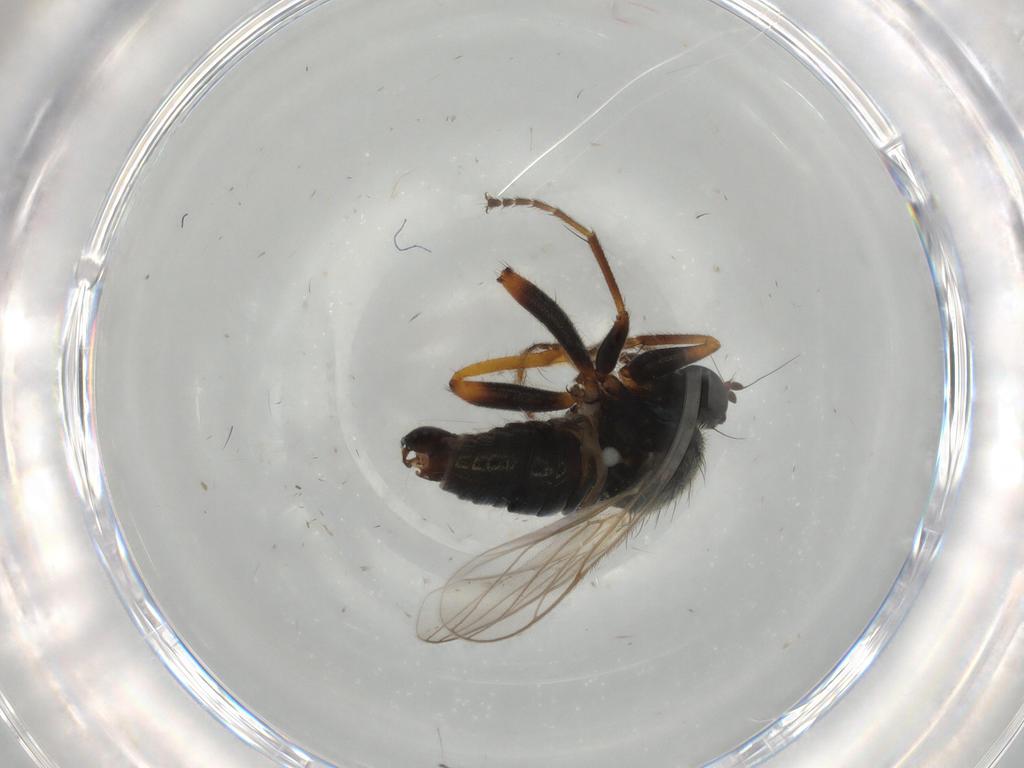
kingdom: Animalia
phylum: Arthropoda
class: Insecta
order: Diptera
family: Hybotidae
